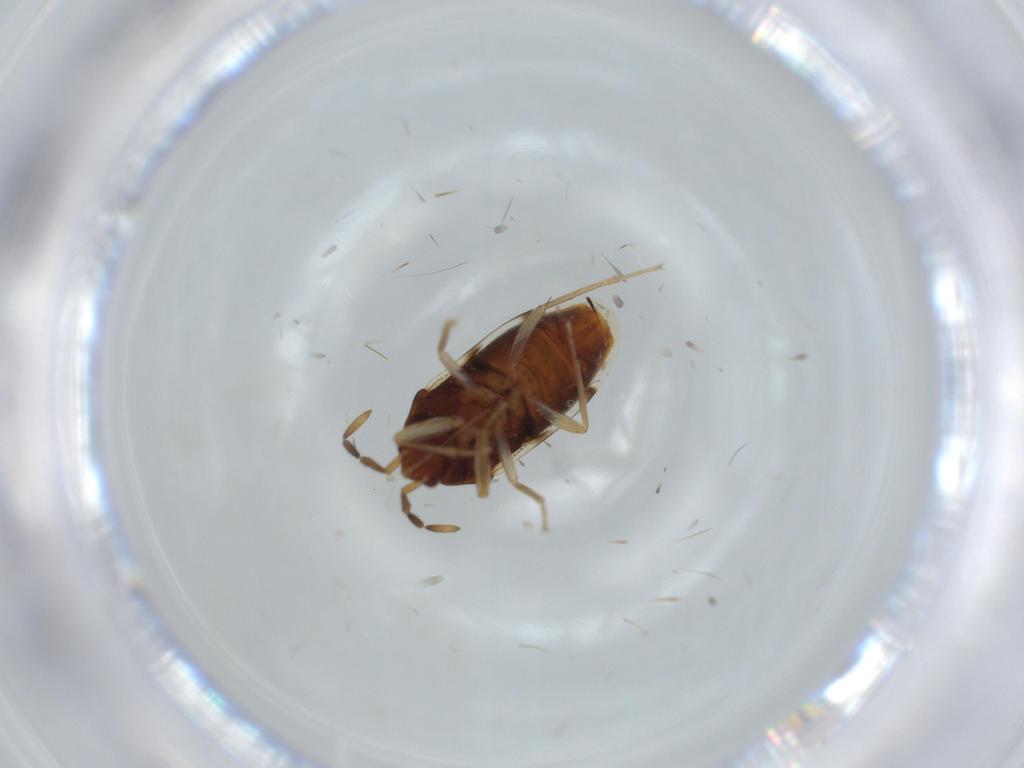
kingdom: Animalia
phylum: Arthropoda
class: Insecta
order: Hemiptera
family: Rhyparochromidae
